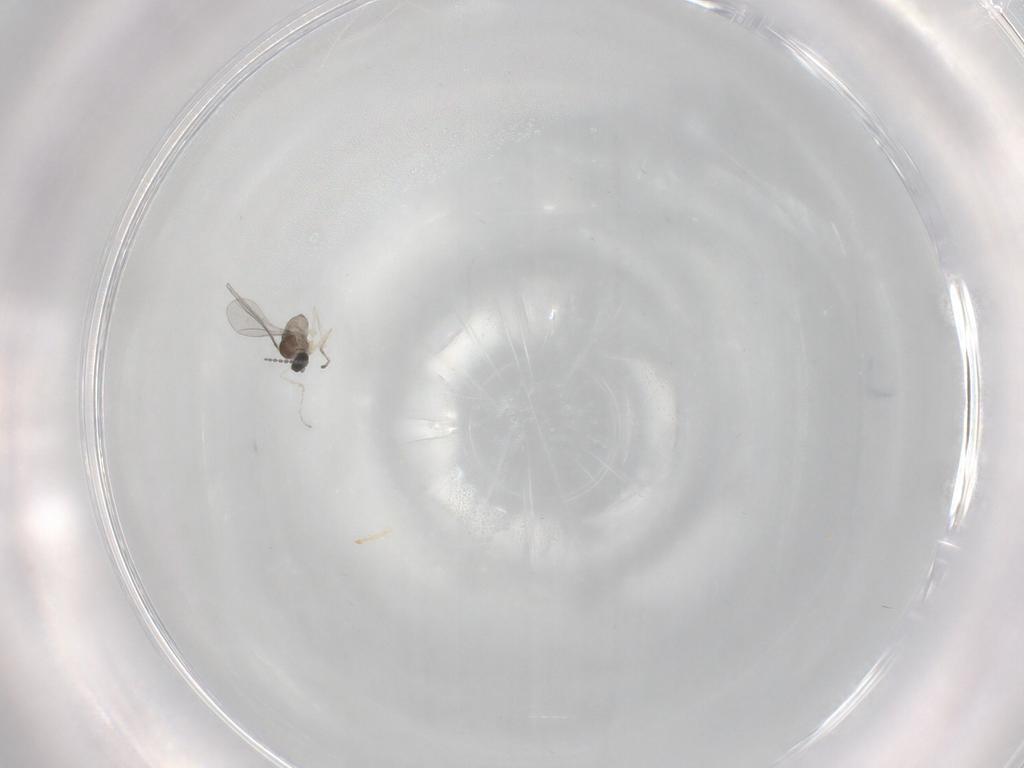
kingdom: Animalia
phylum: Arthropoda
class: Insecta
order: Diptera
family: Cecidomyiidae
